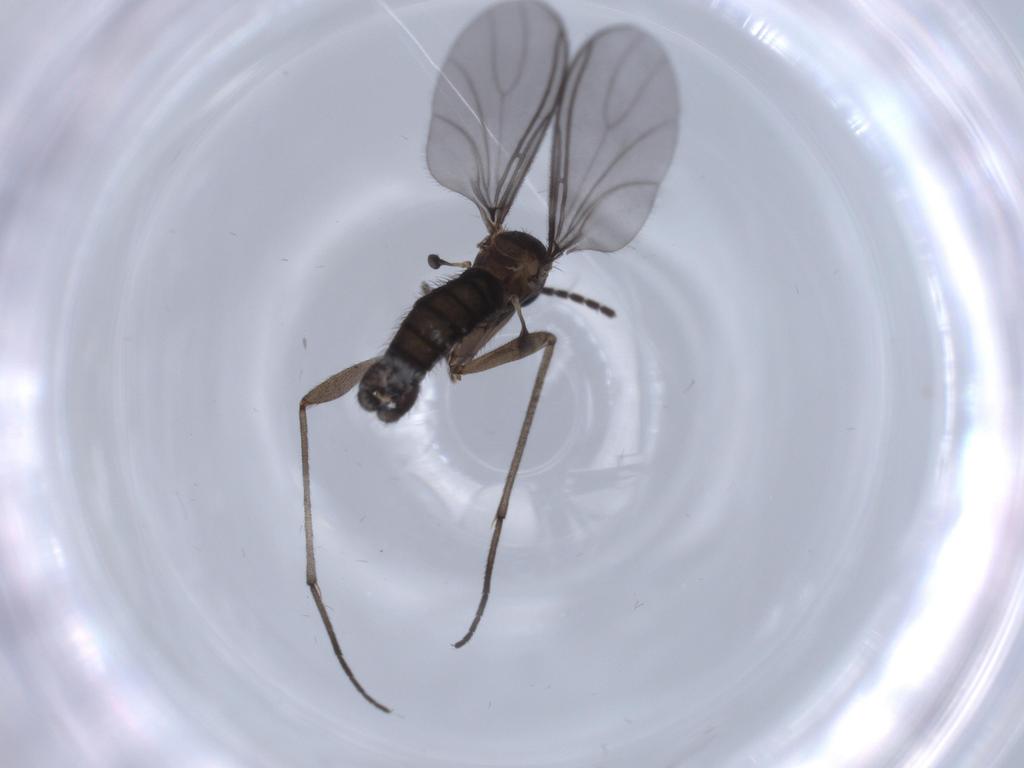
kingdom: Animalia
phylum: Arthropoda
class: Insecta
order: Diptera
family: Sciaridae
